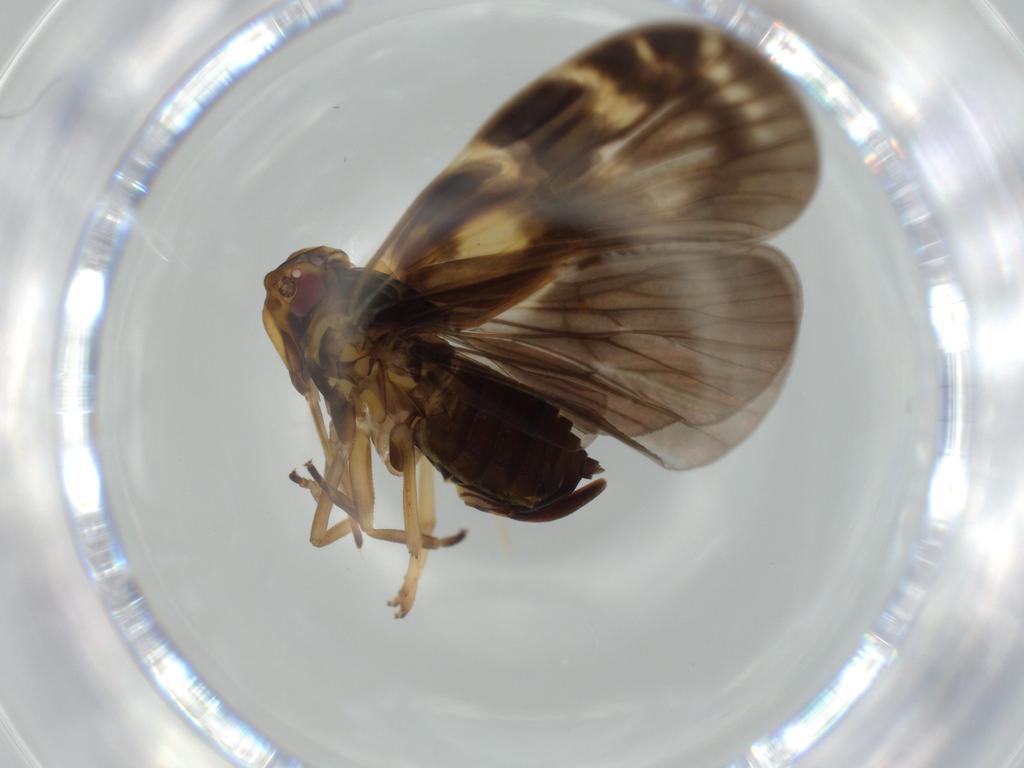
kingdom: Animalia
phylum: Arthropoda
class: Insecta
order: Hemiptera
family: Cixiidae
